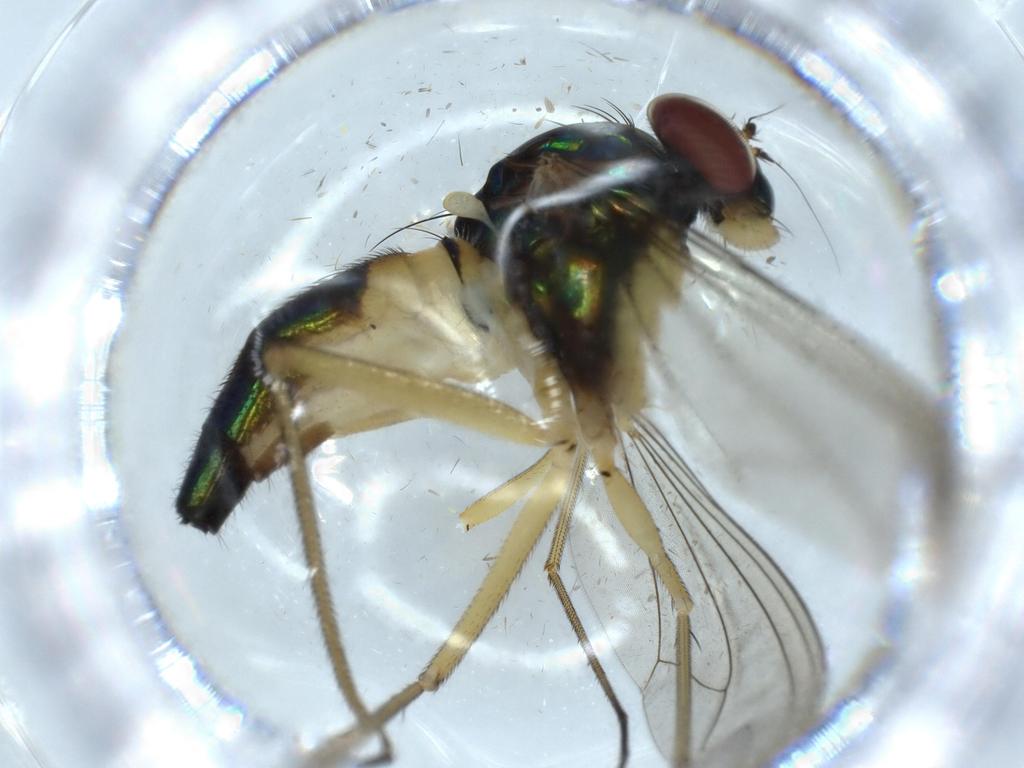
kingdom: Animalia
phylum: Arthropoda
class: Insecta
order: Diptera
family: Dolichopodidae
